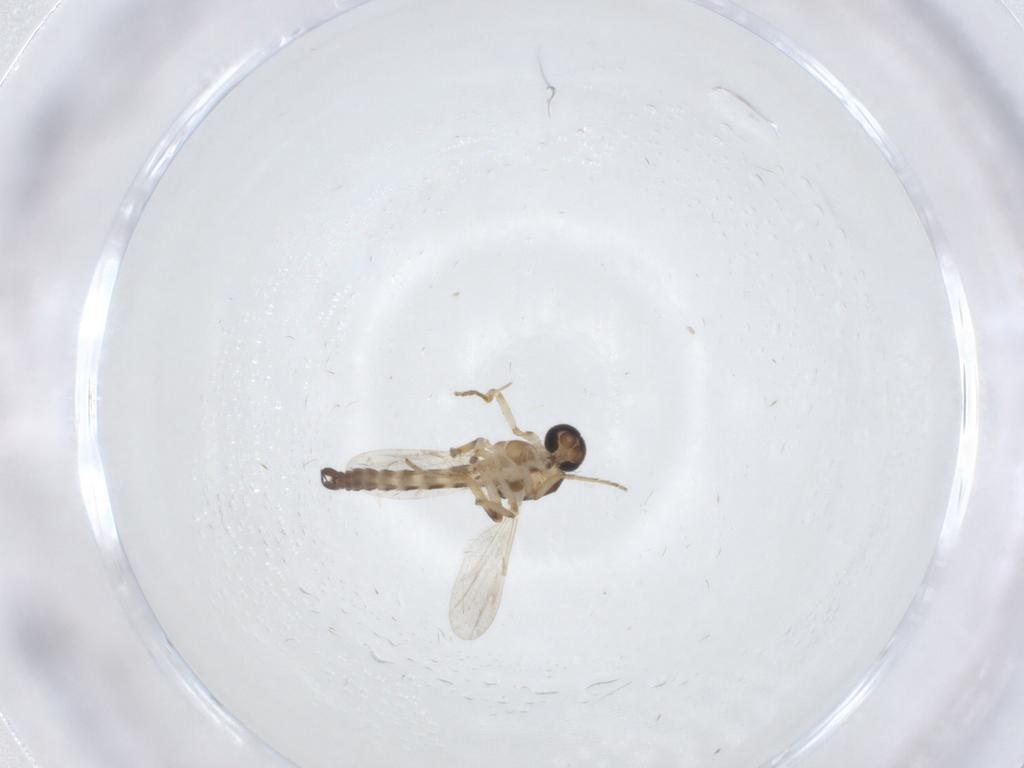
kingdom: Animalia
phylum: Arthropoda
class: Insecta
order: Diptera
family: Ceratopogonidae
